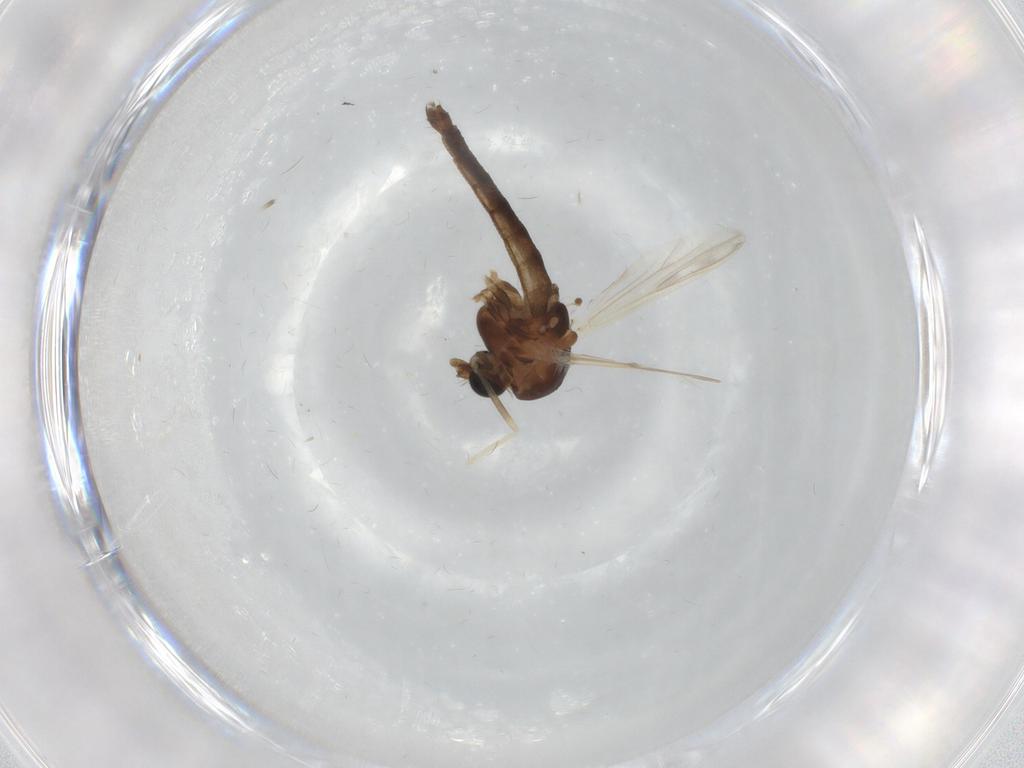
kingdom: Animalia
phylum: Arthropoda
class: Insecta
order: Diptera
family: Chironomidae
